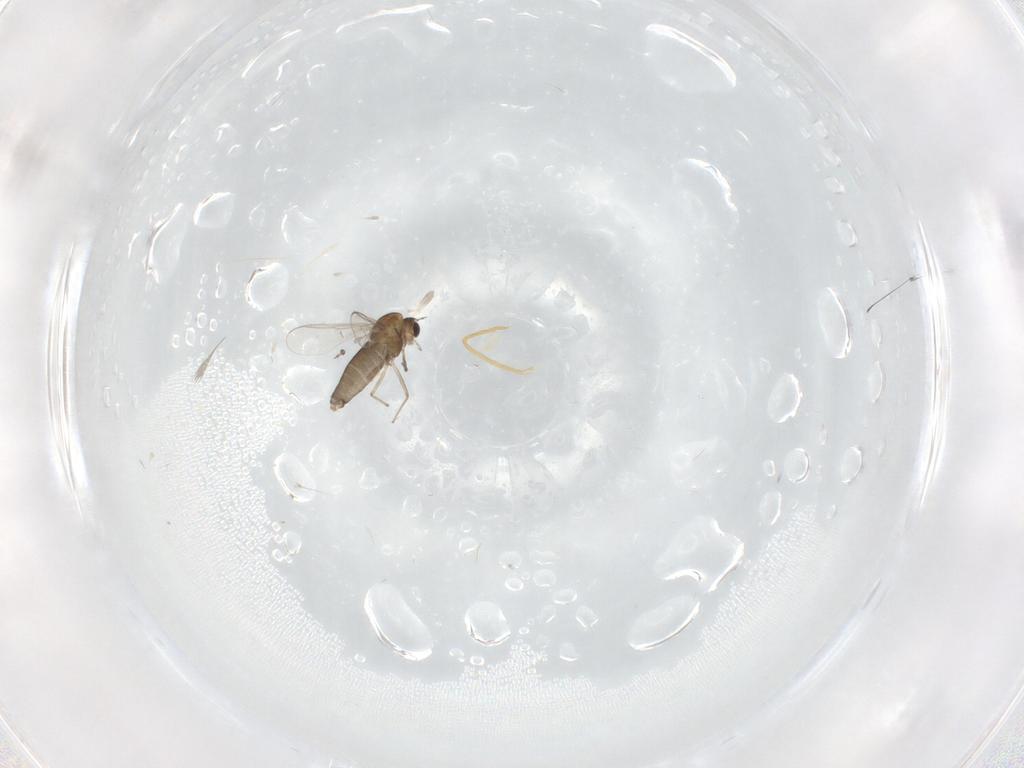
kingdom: Animalia
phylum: Arthropoda
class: Insecta
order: Diptera
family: Chironomidae
